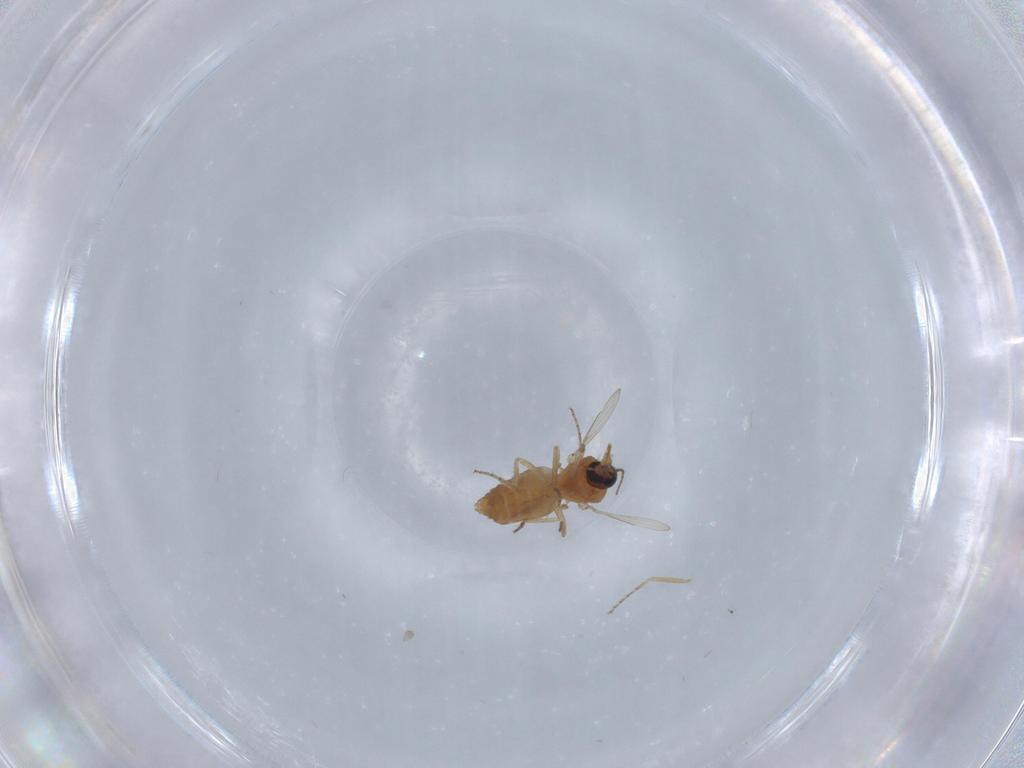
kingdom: Animalia
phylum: Arthropoda
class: Insecta
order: Diptera
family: Ceratopogonidae
